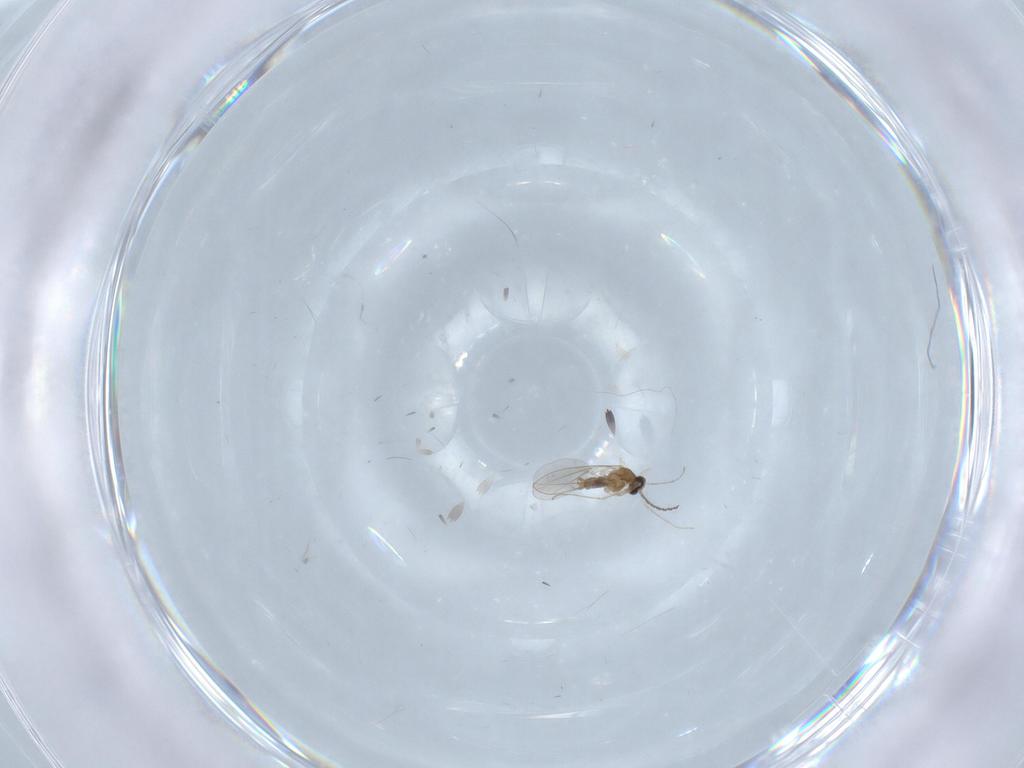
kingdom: Animalia
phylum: Arthropoda
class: Insecta
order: Diptera
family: Cecidomyiidae
